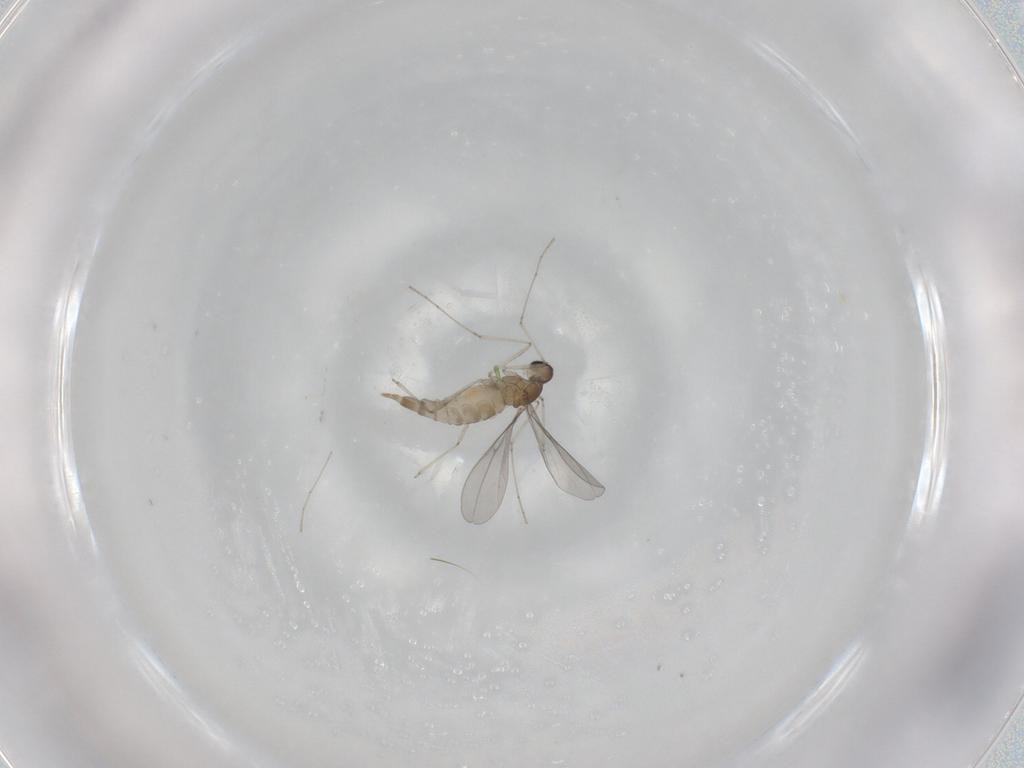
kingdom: Animalia
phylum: Arthropoda
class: Insecta
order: Diptera
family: Cecidomyiidae
